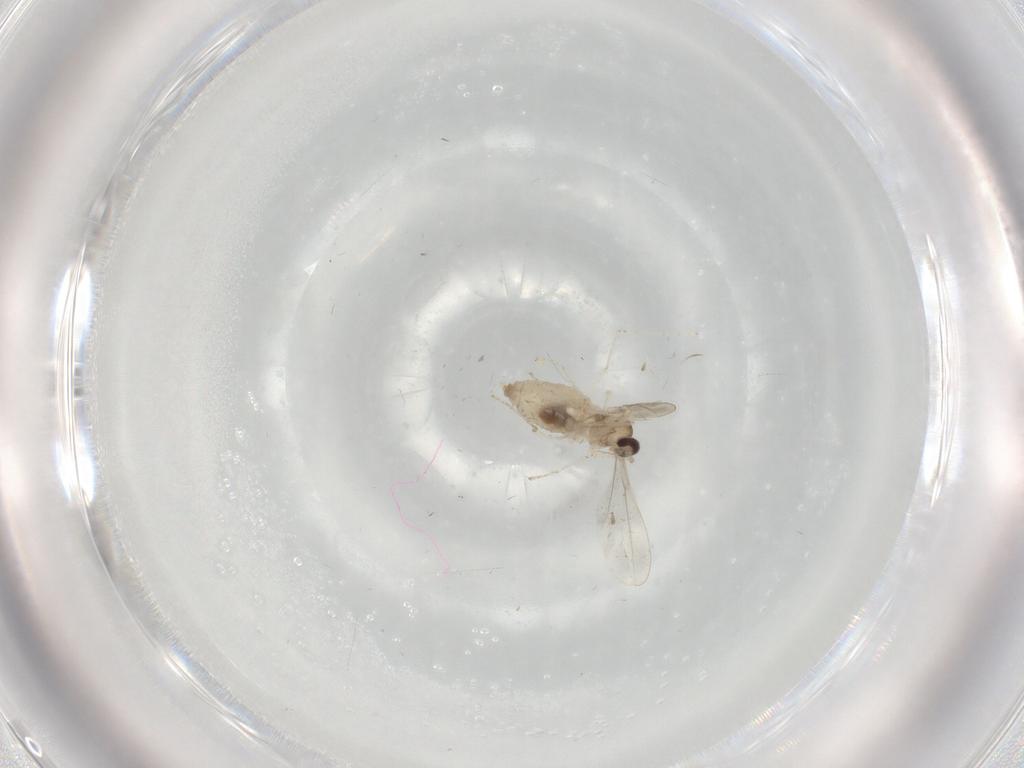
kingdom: Animalia
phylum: Arthropoda
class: Insecta
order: Diptera
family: Cecidomyiidae
